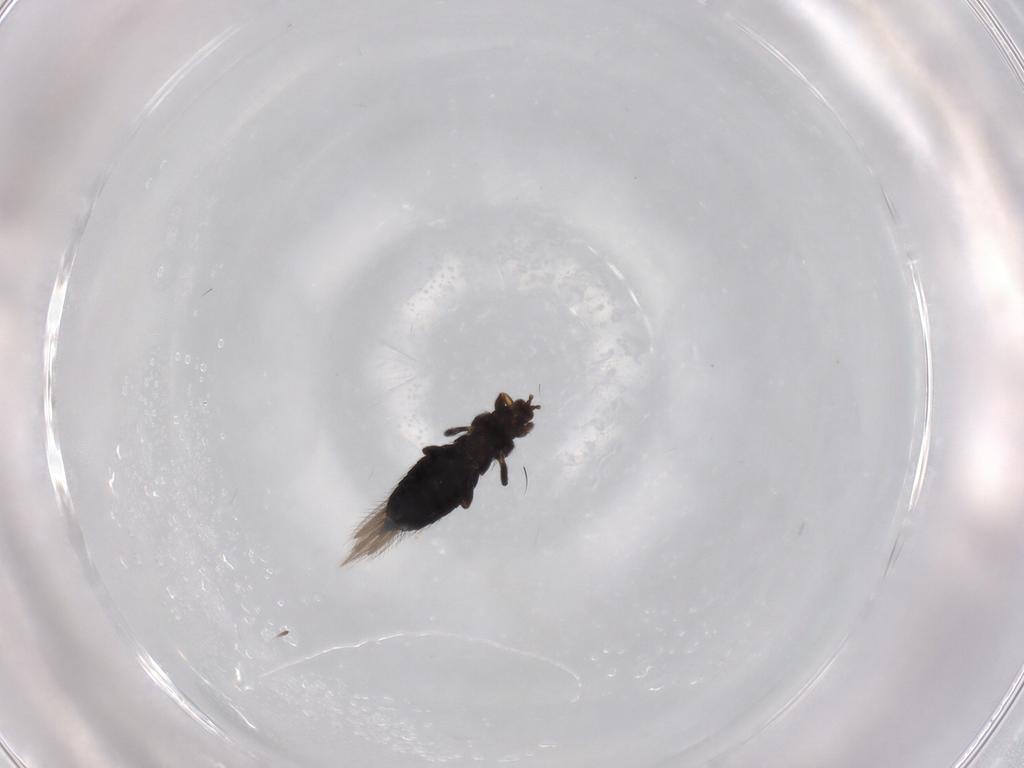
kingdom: Animalia
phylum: Arthropoda
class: Insecta
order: Thysanoptera
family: Thripidae
